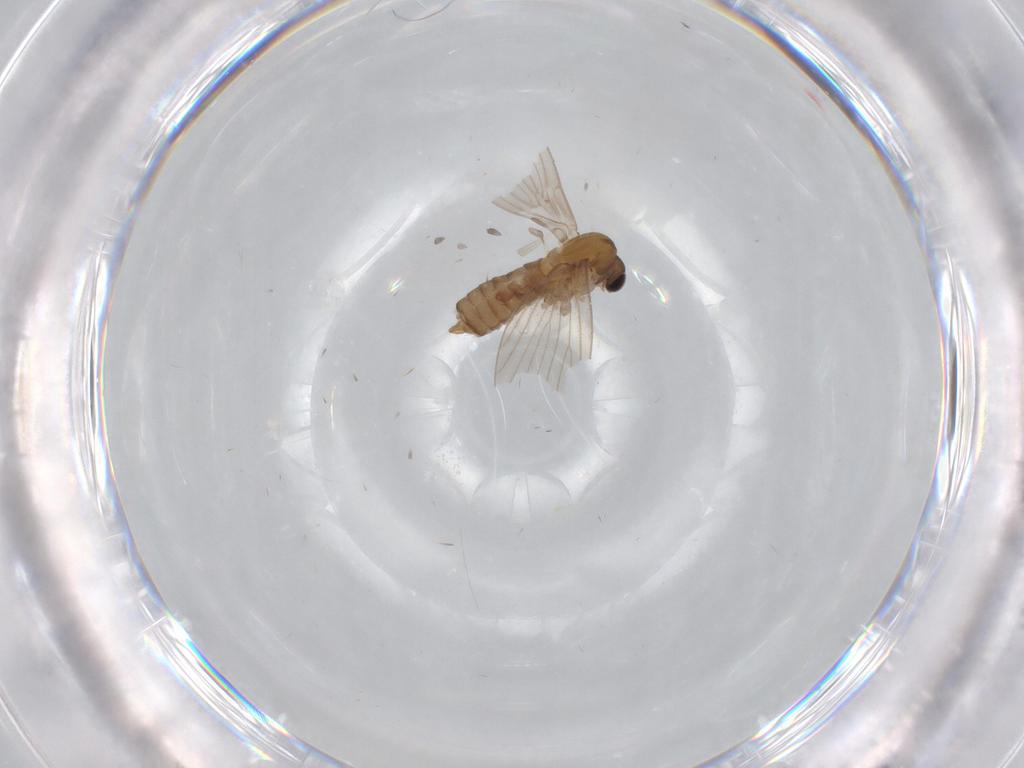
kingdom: Animalia
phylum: Arthropoda
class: Insecta
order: Diptera
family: Psychodidae
